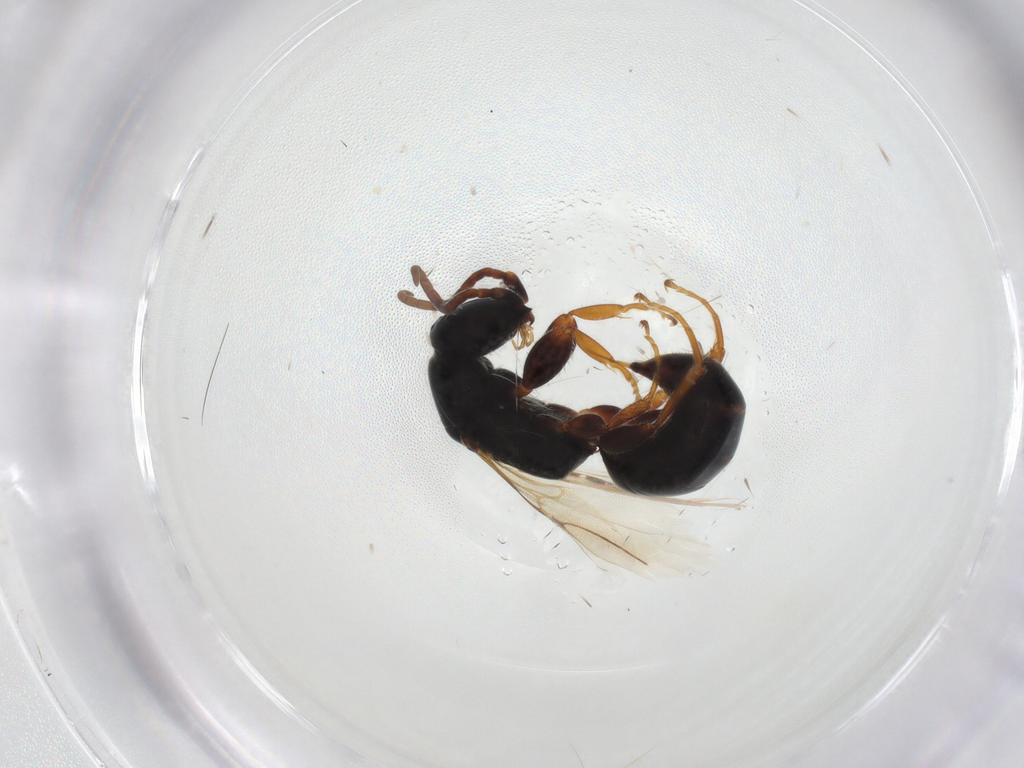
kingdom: Animalia
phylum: Arthropoda
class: Insecta
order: Hymenoptera
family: Bethylidae
